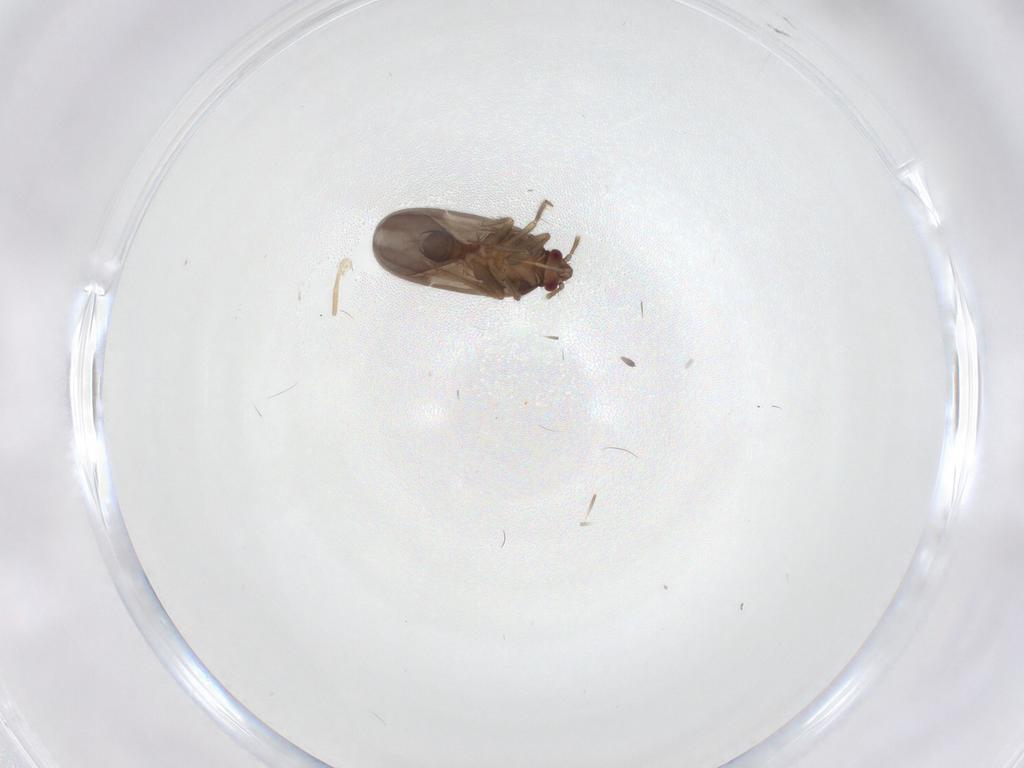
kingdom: Animalia
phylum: Arthropoda
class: Insecta
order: Hemiptera
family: Ceratocombidae
